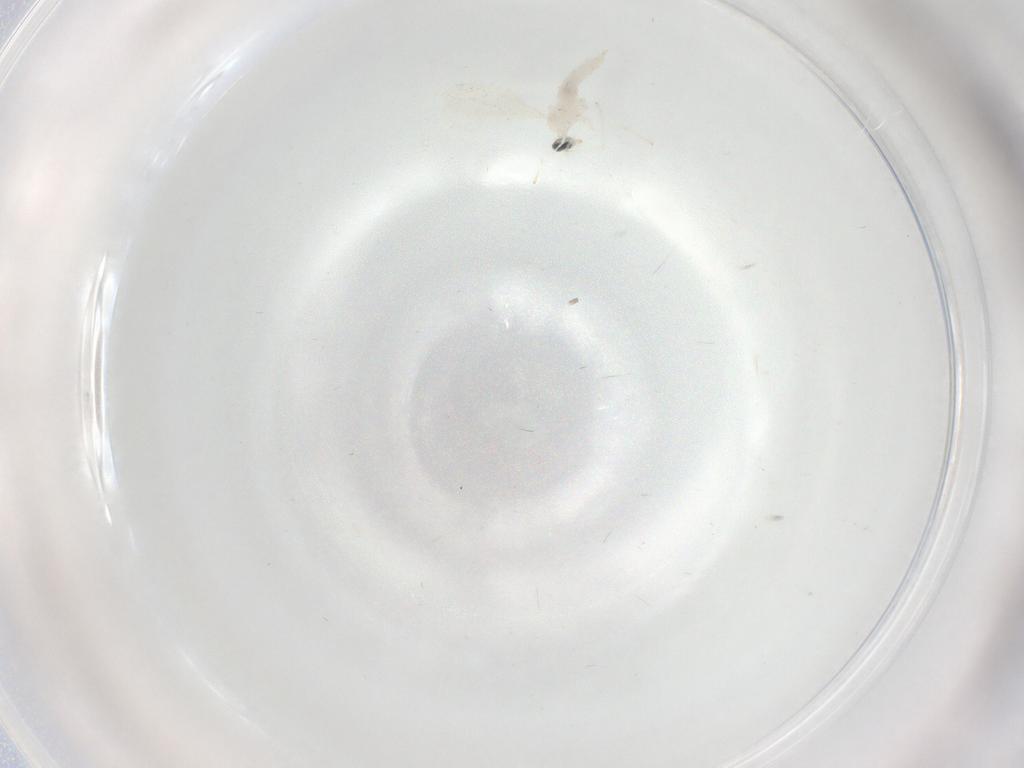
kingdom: Animalia
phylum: Arthropoda
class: Insecta
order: Diptera
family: Cecidomyiidae
